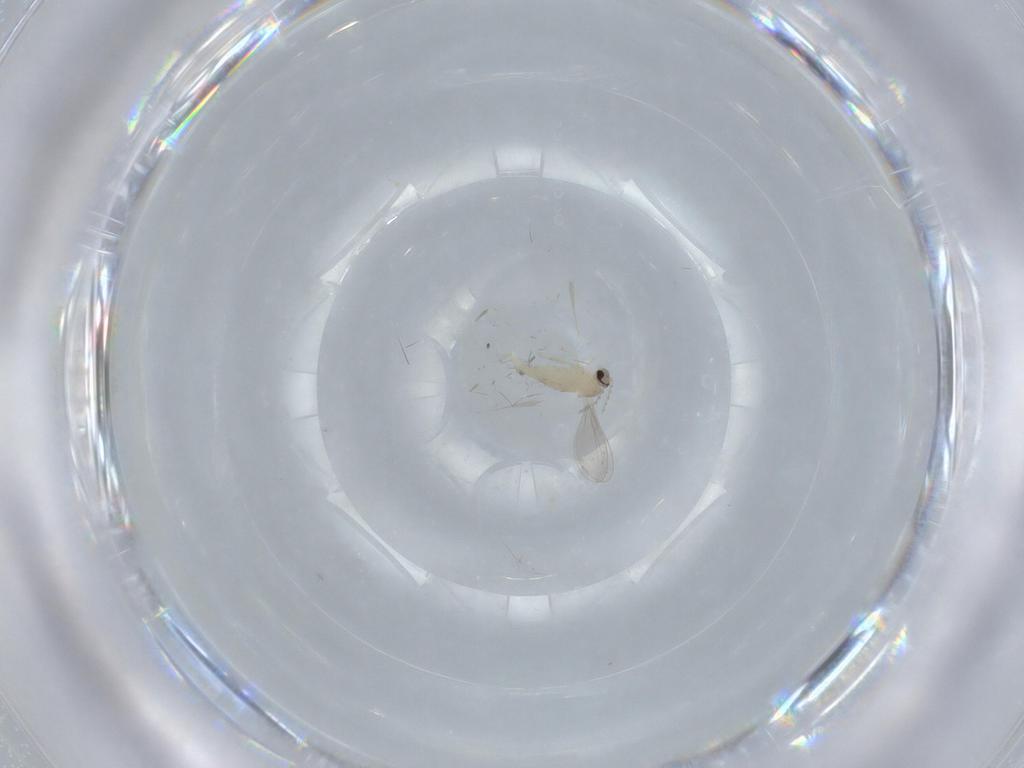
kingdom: Animalia
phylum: Arthropoda
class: Insecta
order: Diptera
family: Cecidomyiidae
